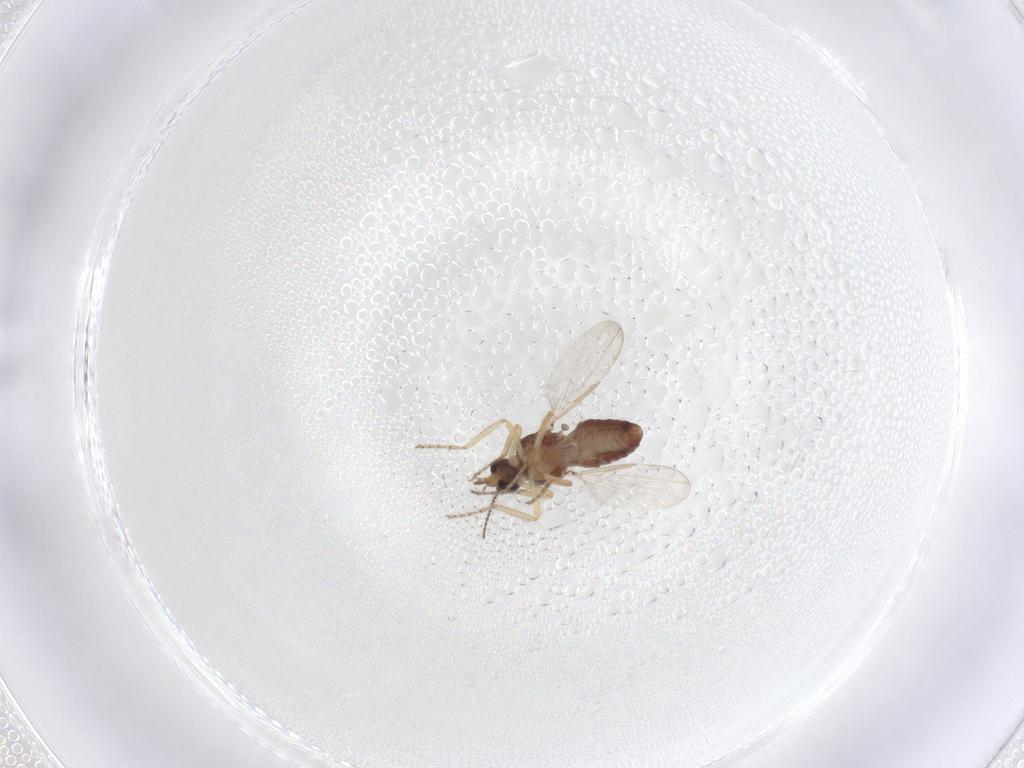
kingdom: Animalia
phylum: Arthropoda
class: Insecta
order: Diptera
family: Ceratopogonidae
